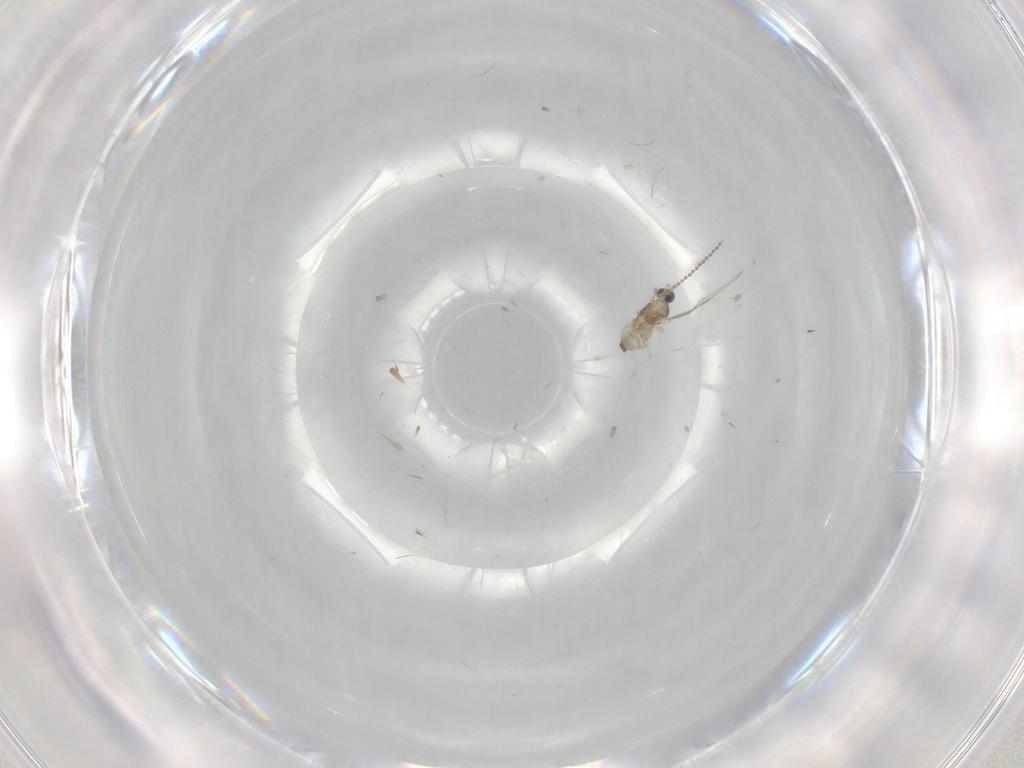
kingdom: Animalia
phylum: Arthropoda
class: Insecta
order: Diptera
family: Cecidomyiidae
